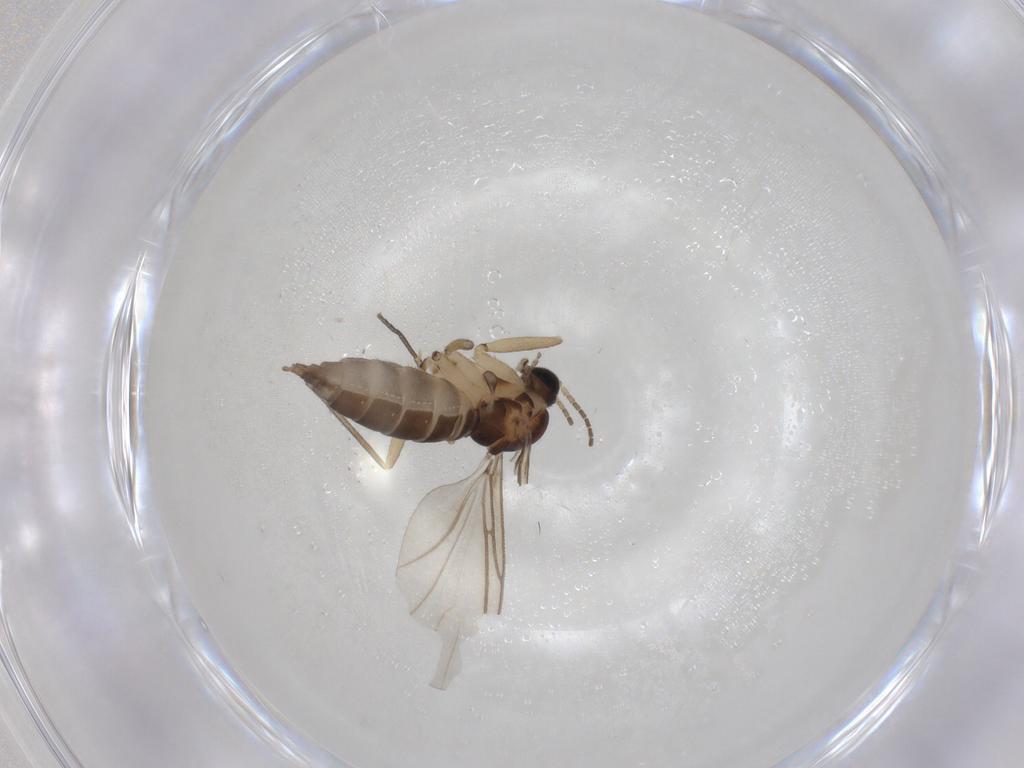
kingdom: Animalia
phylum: Arthropoda
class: Insecta
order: Diptera
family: Sciaridae
